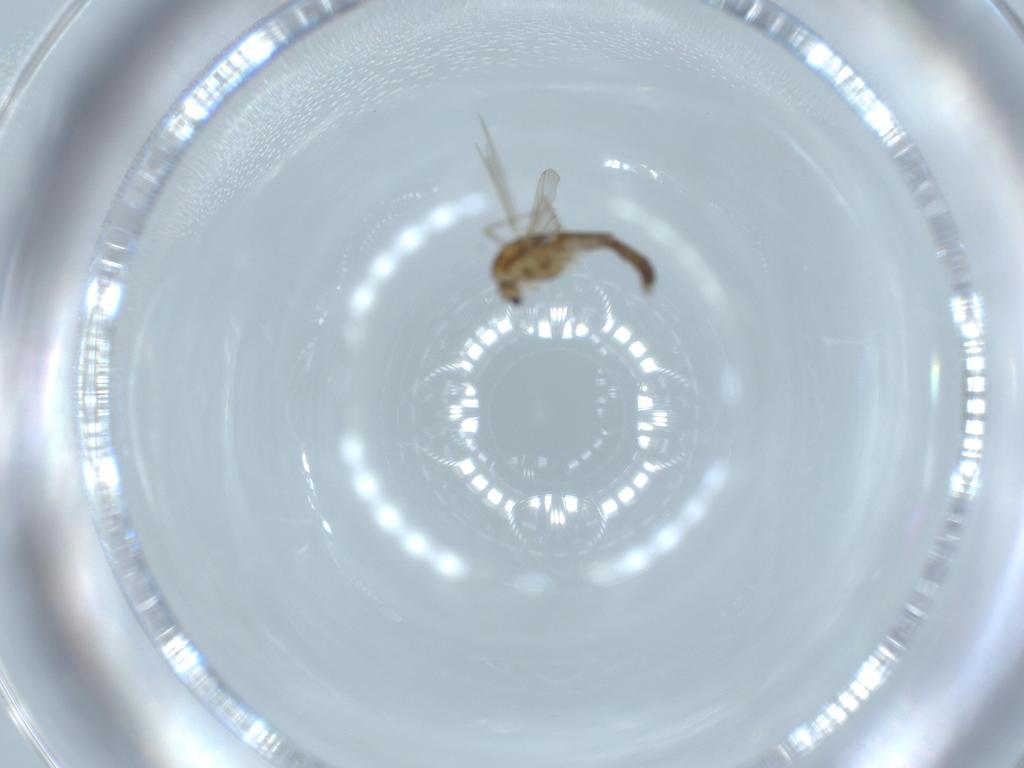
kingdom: Animalia
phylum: Arthropoda
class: Insecta
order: Diptera
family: Chironomidae
